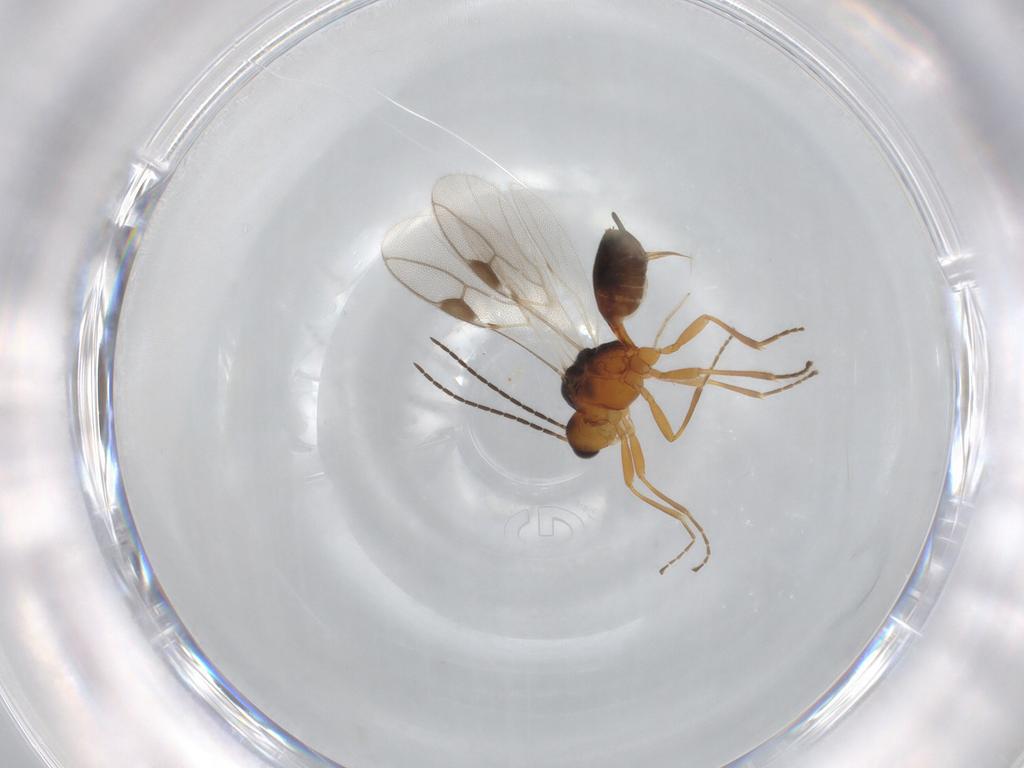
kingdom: Animalia
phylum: Arthropoda
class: Insecta
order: Hymenoptera
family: Braconidae
